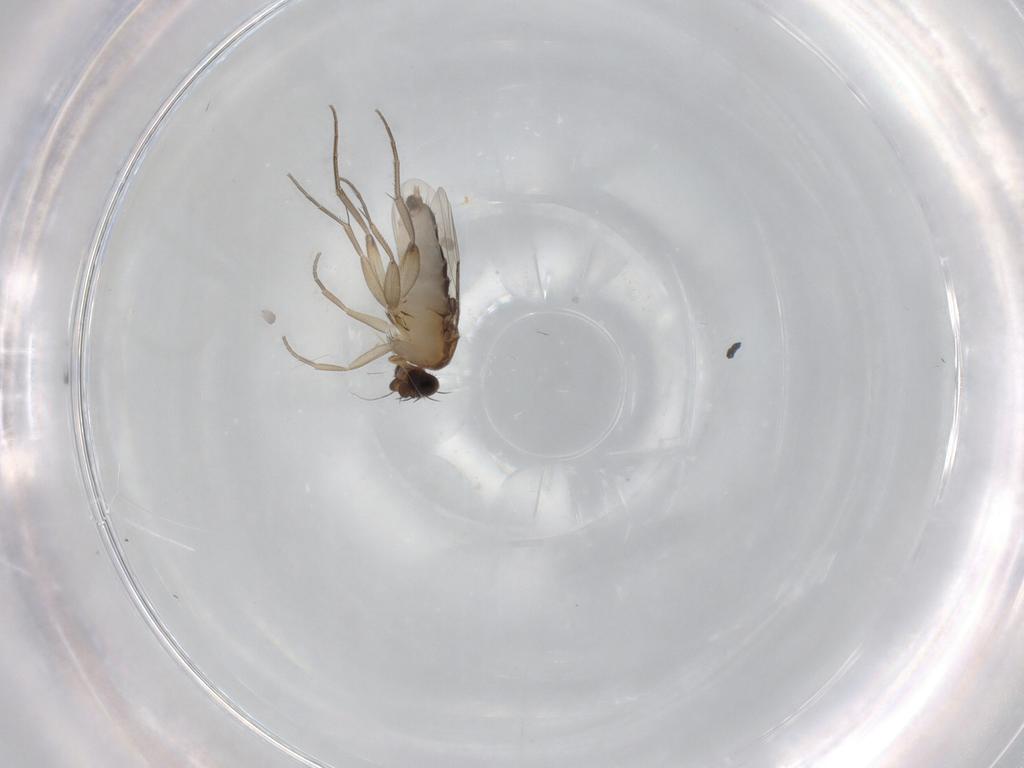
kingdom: Animalia
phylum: Arthropoda
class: Insecta
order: Diptera
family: Phoridae
